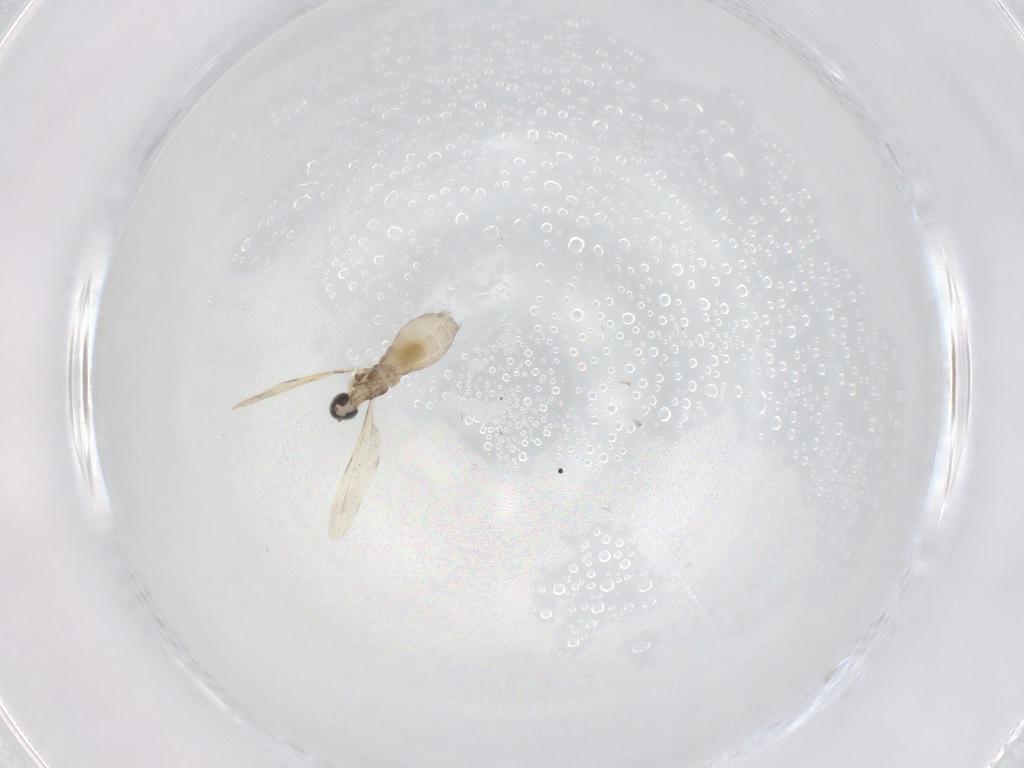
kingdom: Animalia
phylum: Arthropoda
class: Insecta
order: Diptera
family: Cecidomyiidae
